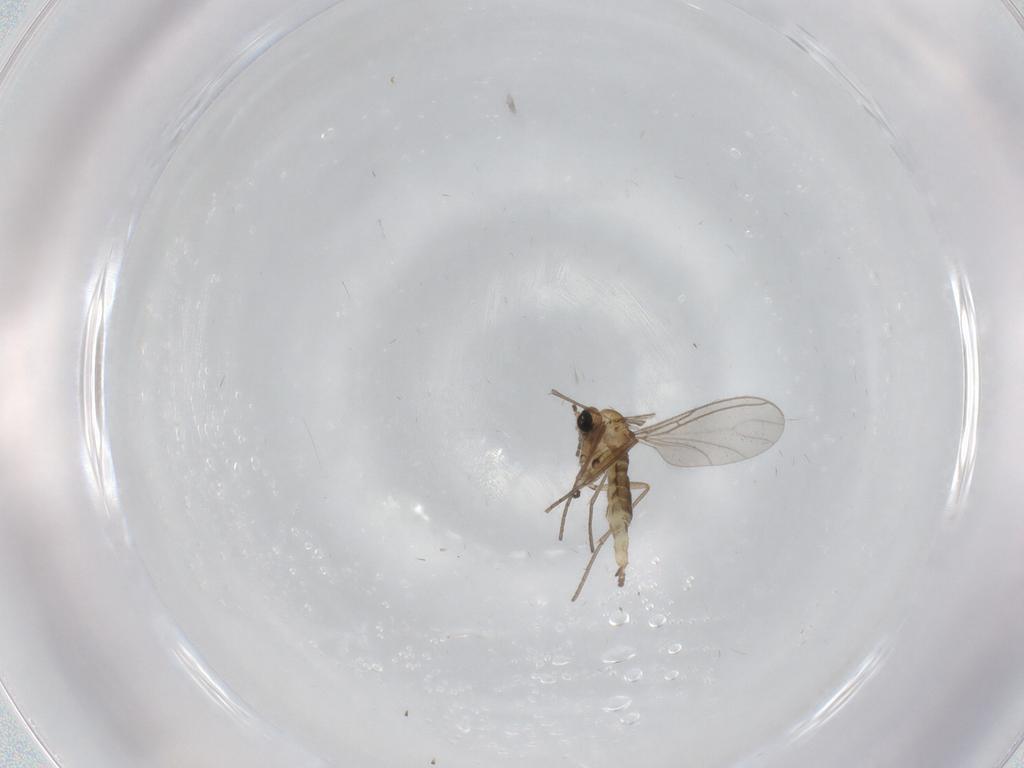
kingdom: Animalia
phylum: Arthropoda
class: Insecta
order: Diptera
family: Sciaridae
